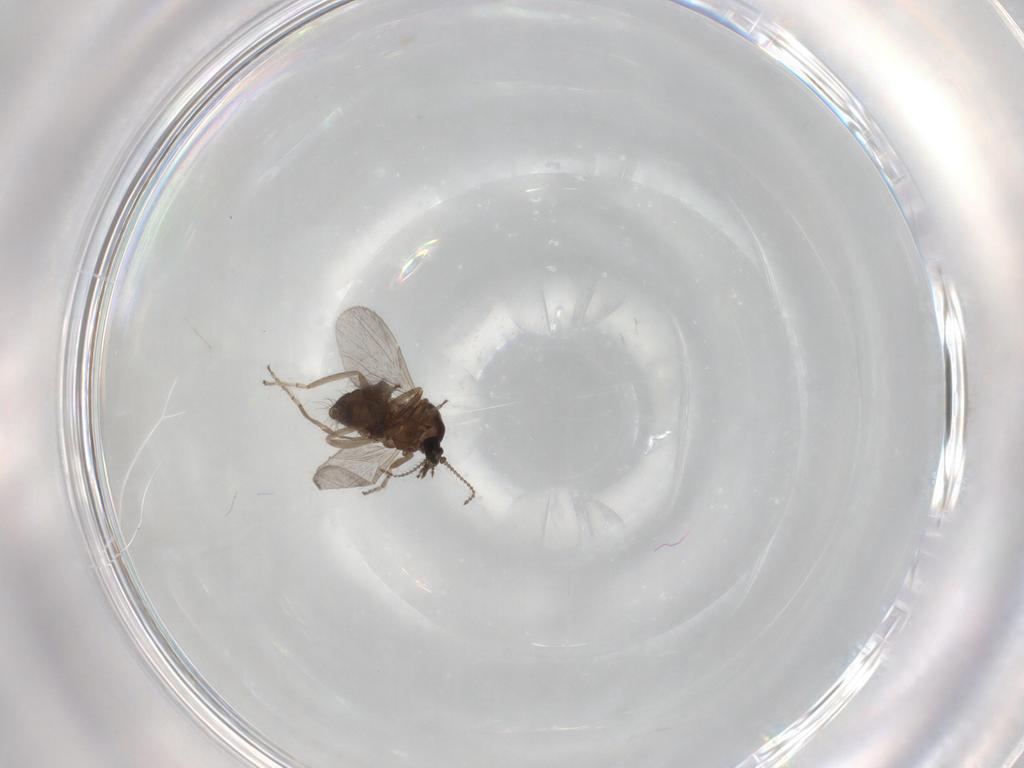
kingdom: Animalia
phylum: Arthropoda
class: Insecta
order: Diptera
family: Ceratopogonidae
